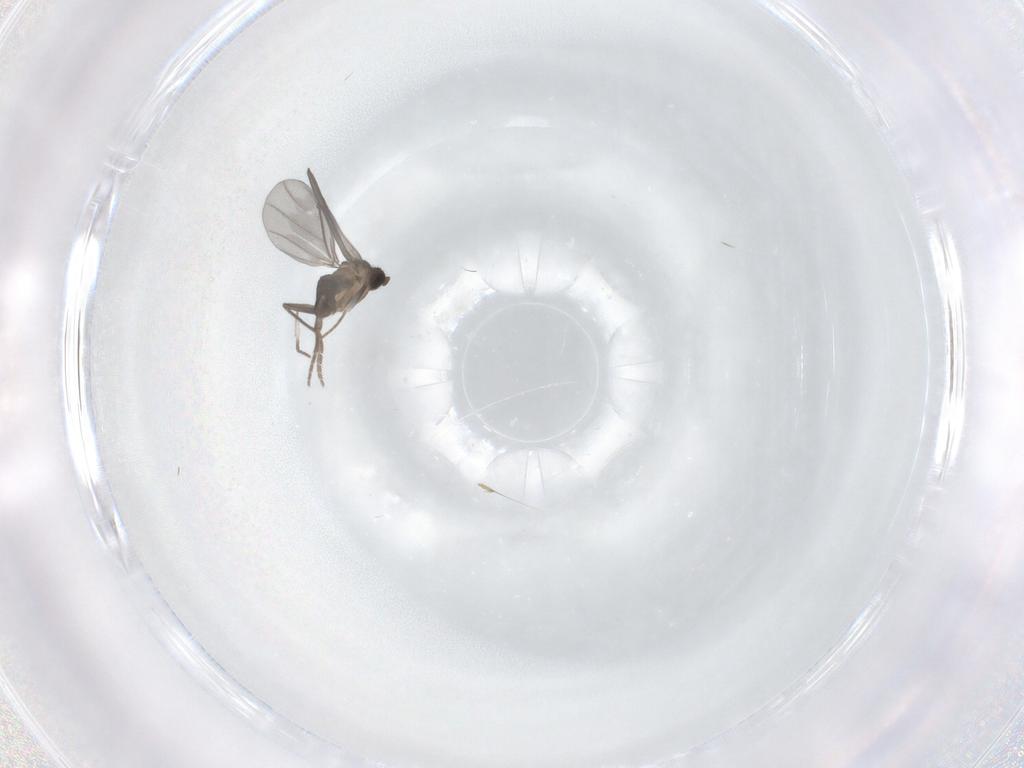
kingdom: Animalia
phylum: Arthropoda
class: Insecta
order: Diptera
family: Phoridae
